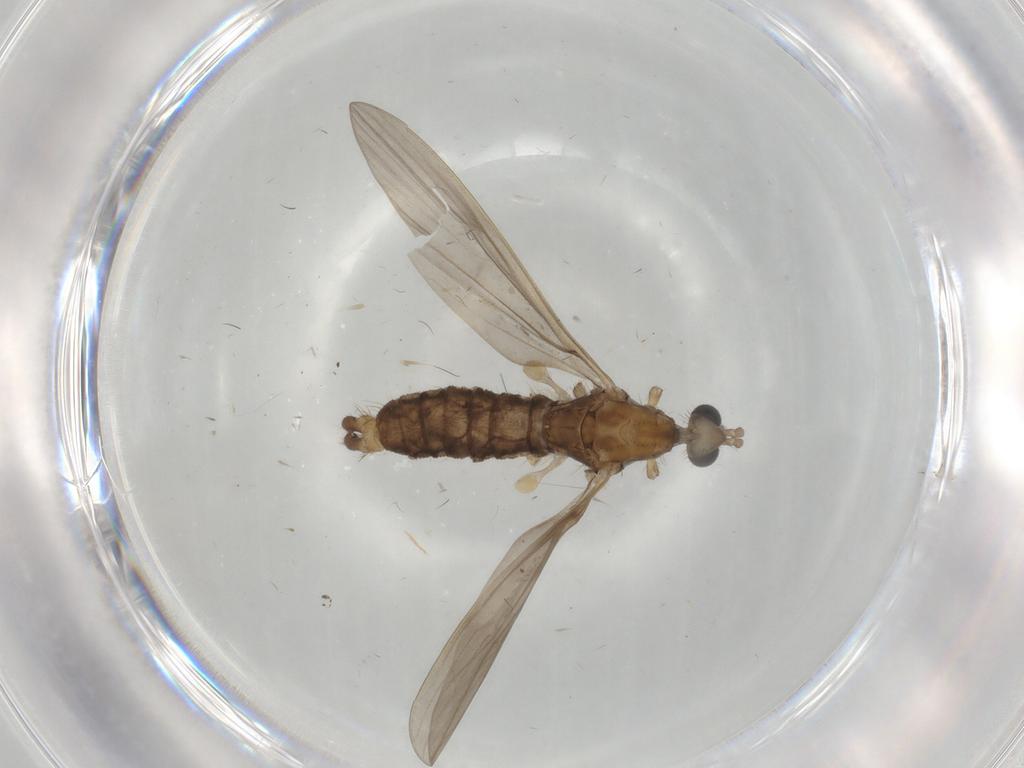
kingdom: Animalia
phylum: Arthropoda
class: Insecta
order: Diptera
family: Limoniidae
